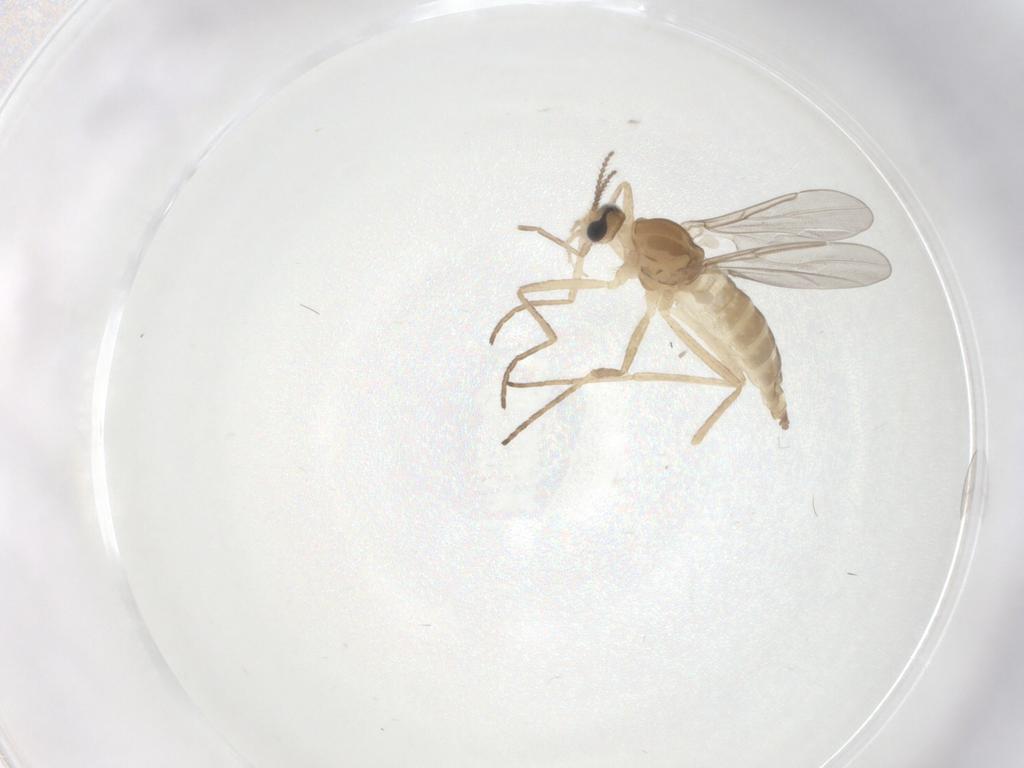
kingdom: Animalia
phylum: Arthropoda
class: Insecta
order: Diptera
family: Cecidomyiidae
